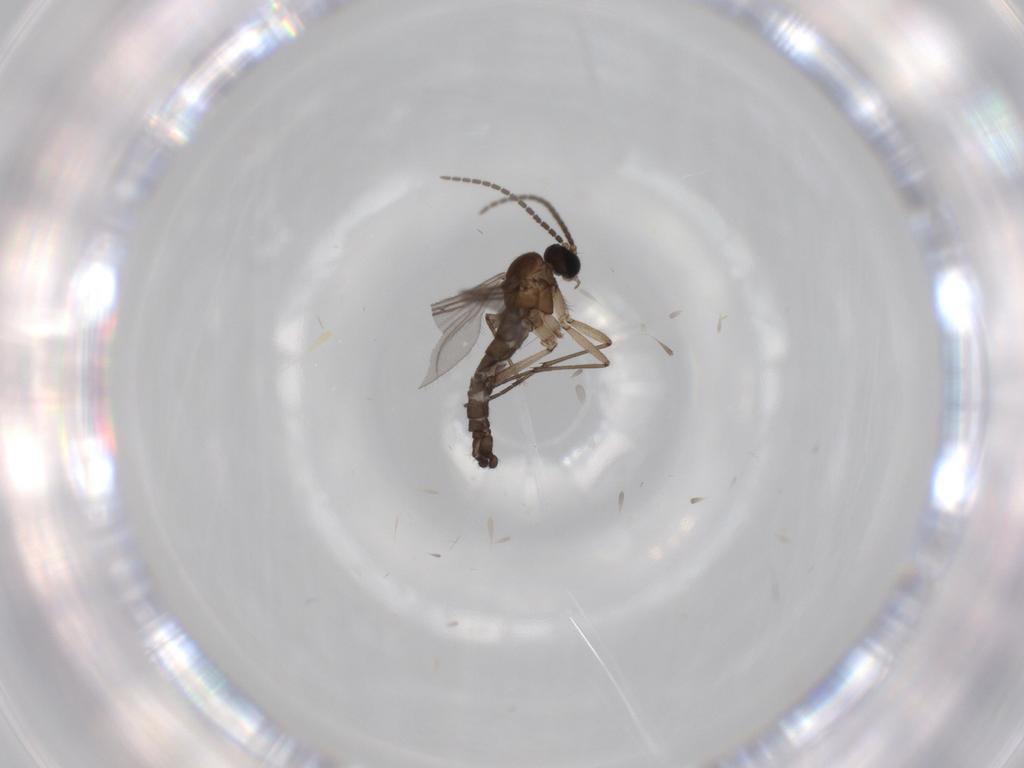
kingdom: Animalia
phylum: Arthropoda
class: Insecta
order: Diptera
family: Sciaridae
